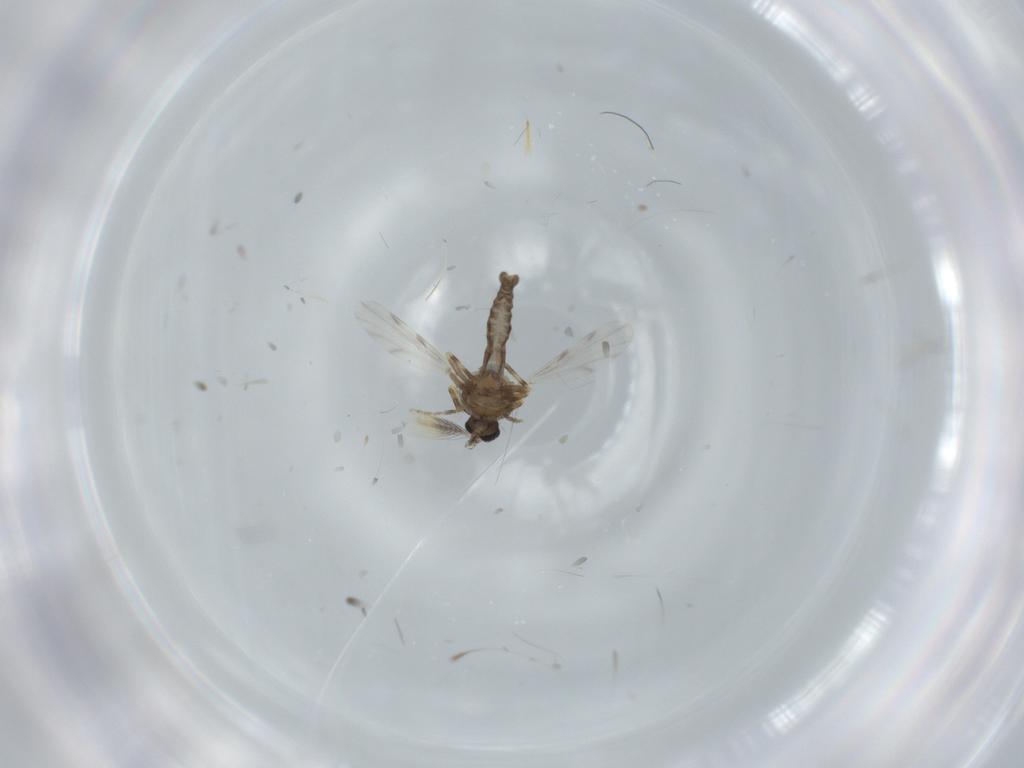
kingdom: Animalia
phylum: Arthropoda
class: Insecta
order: Diptera
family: Ceratopogonidae
